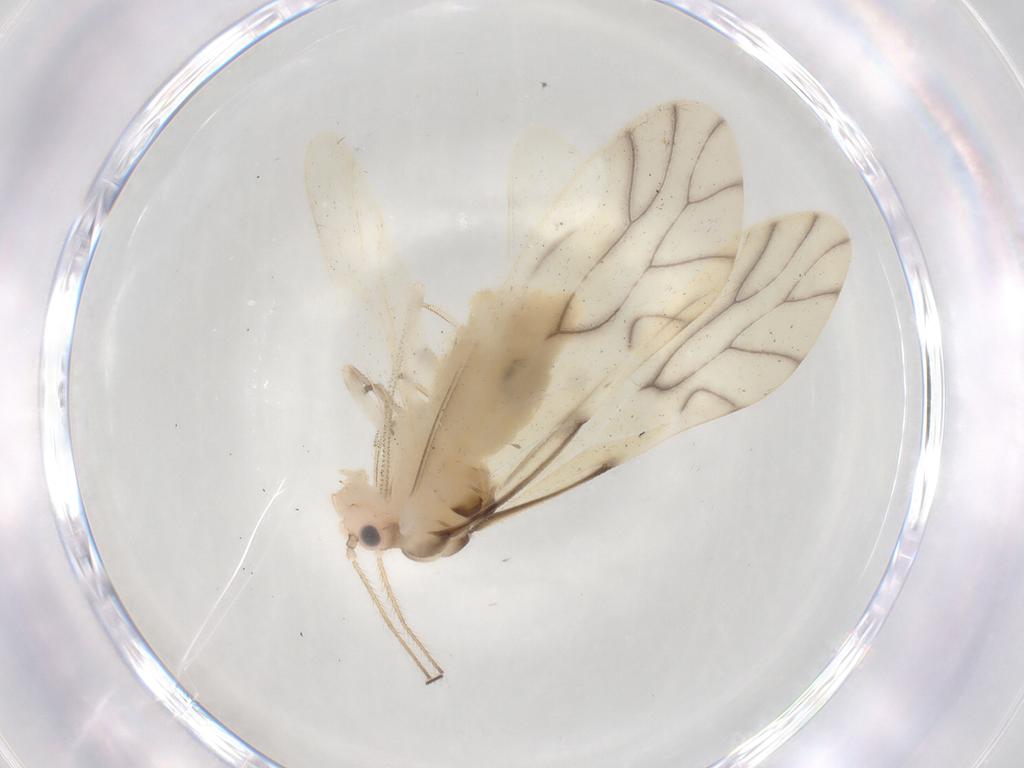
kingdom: Animalia
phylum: Arthropoda
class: Insecta
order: Psocodea
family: Caeciliusidae
